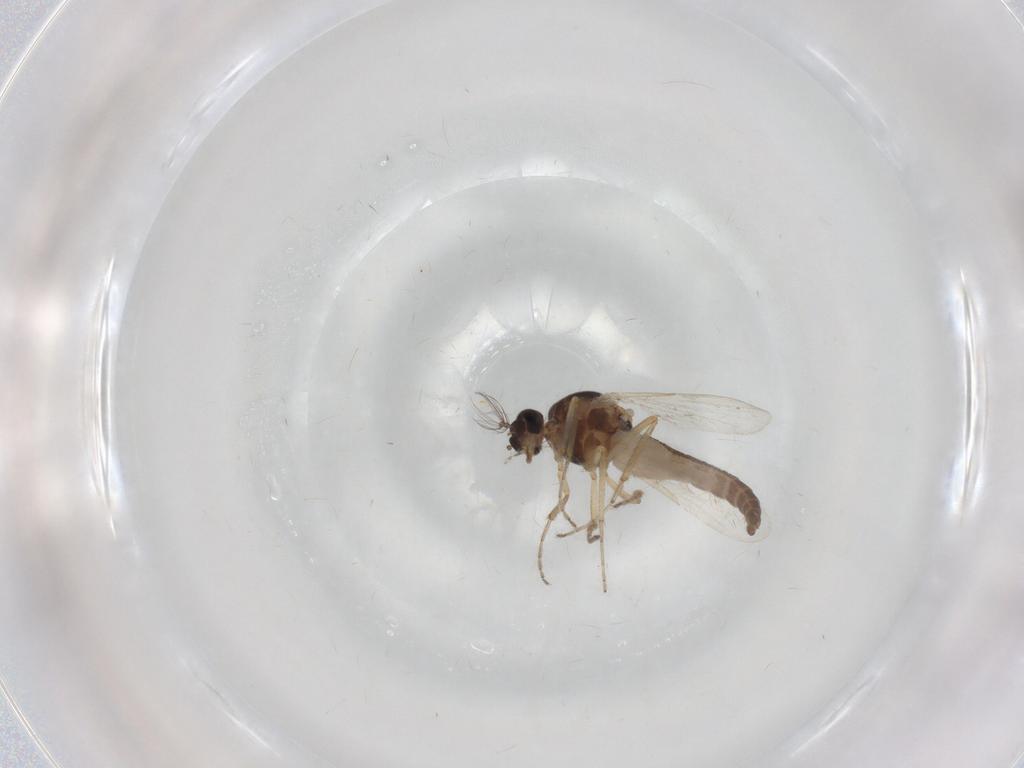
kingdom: Animalia
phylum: Arthropoda
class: Insecta
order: Diptera
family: Ceratopogonidae
